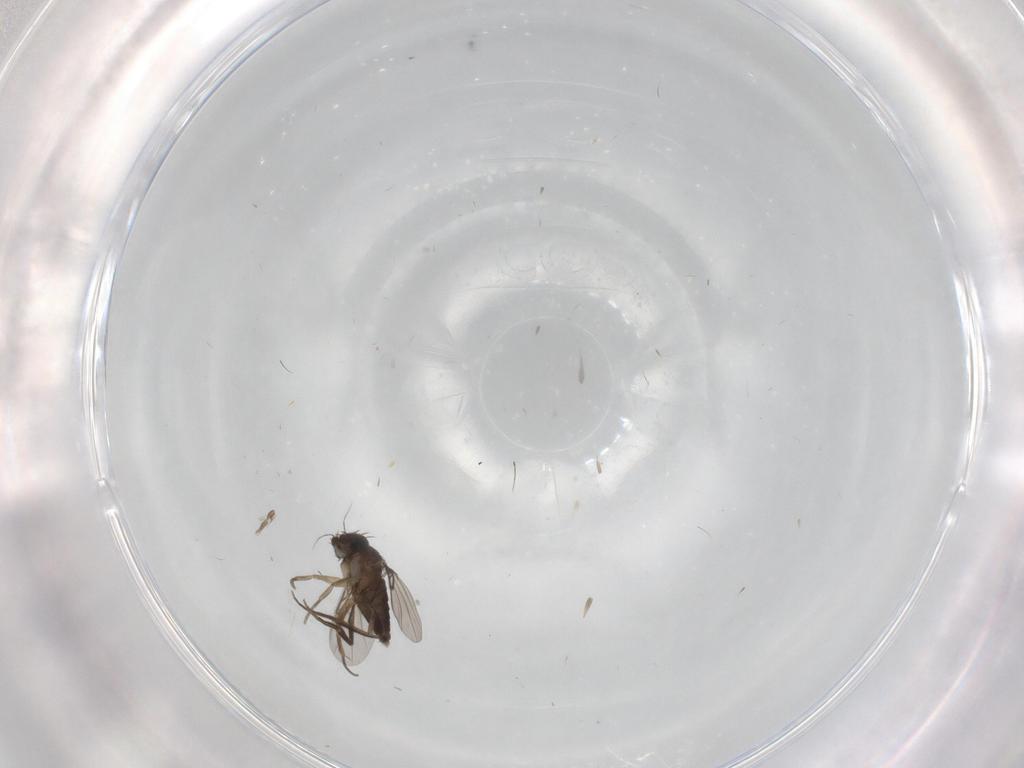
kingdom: Animalia
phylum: Arthropoda
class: Insecta
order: Diptera
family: Phoridae
